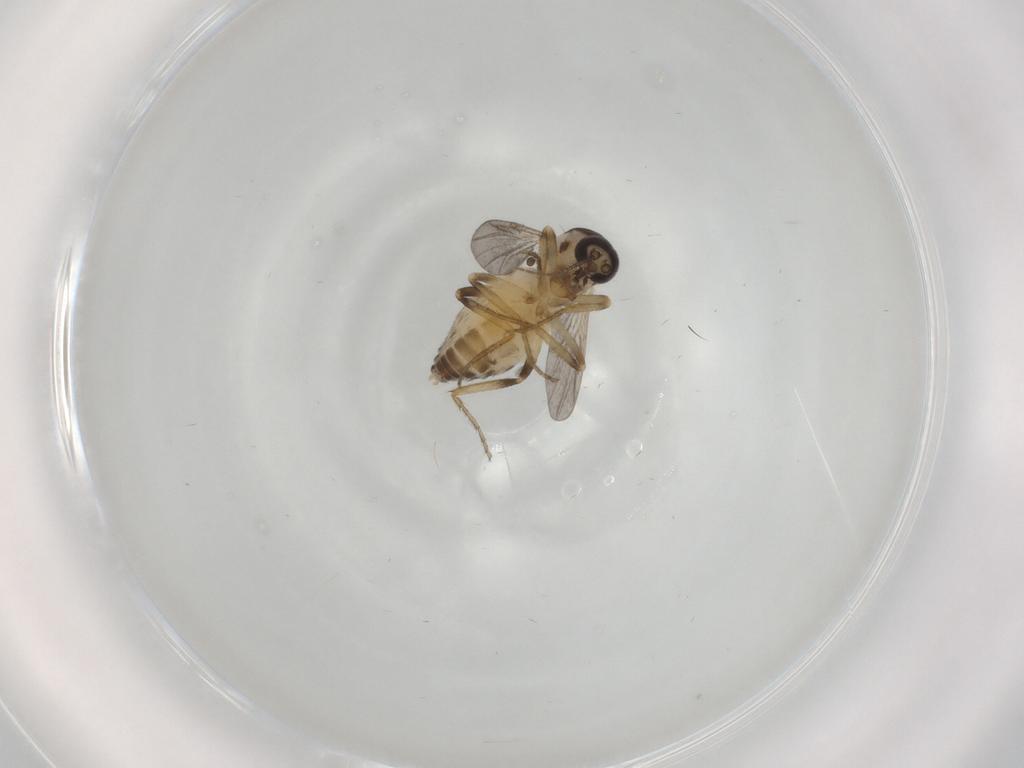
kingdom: Animalia
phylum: Arthropoda
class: Insecta
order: Diptera
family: Ceratopogonidae
